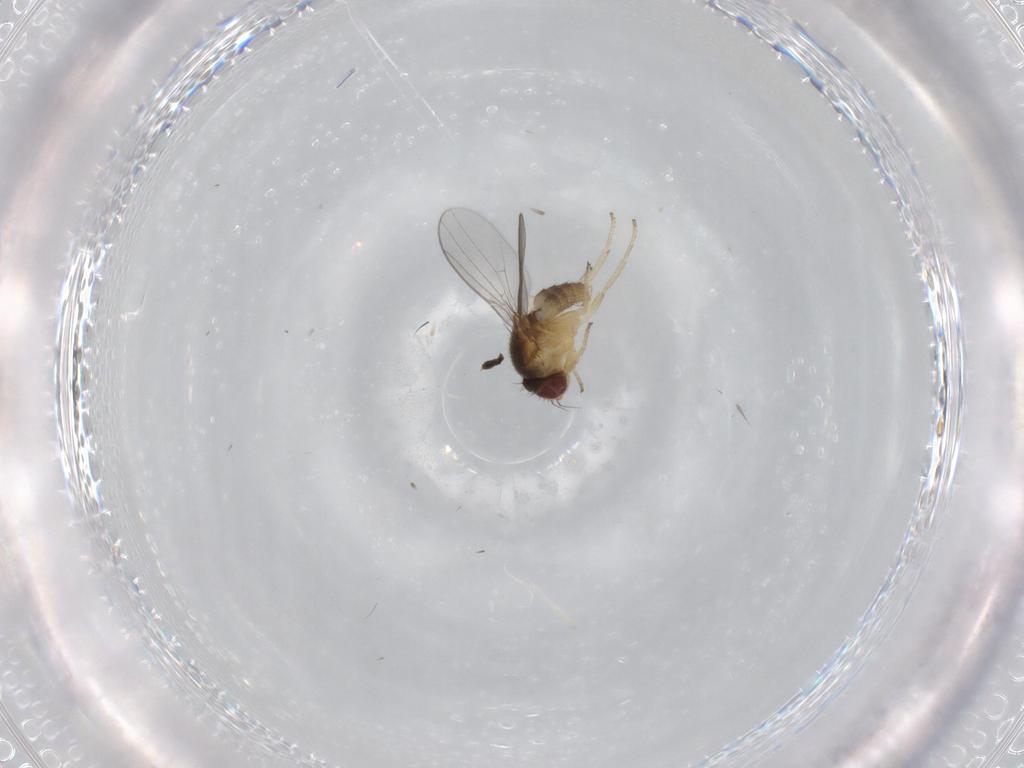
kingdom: Animalia
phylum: Arthropoda
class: Insecta
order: Diptera
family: Chloropidae
